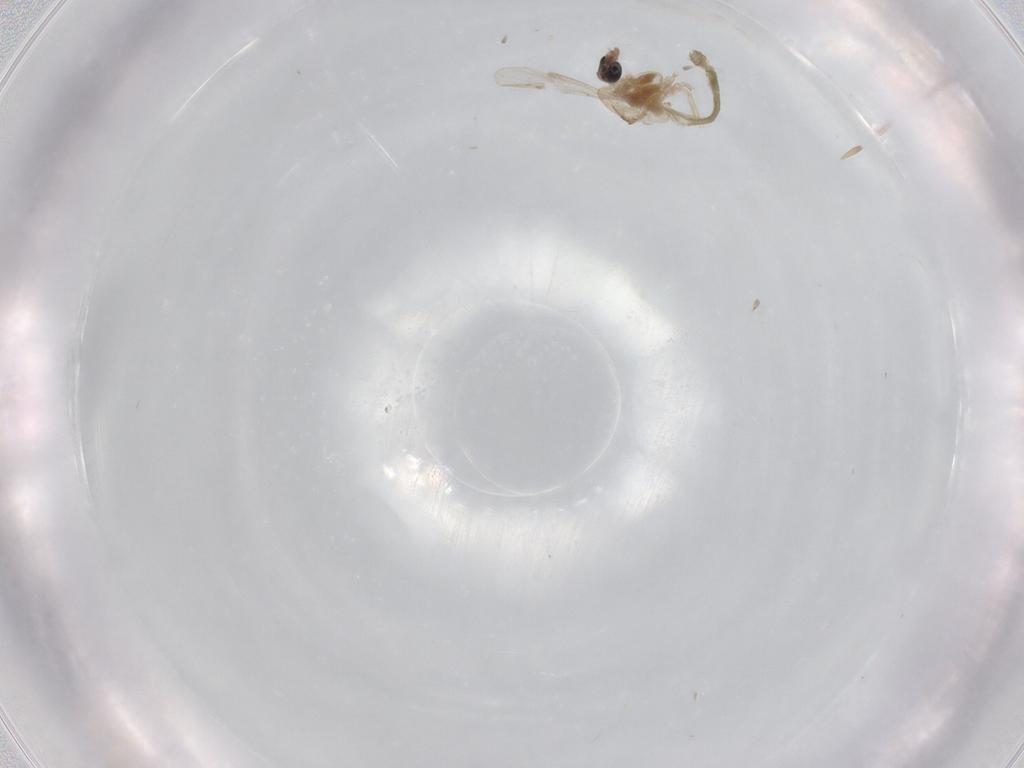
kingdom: Animalia
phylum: Arthropoda
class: Insecta
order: Diptera
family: Chironomidae
